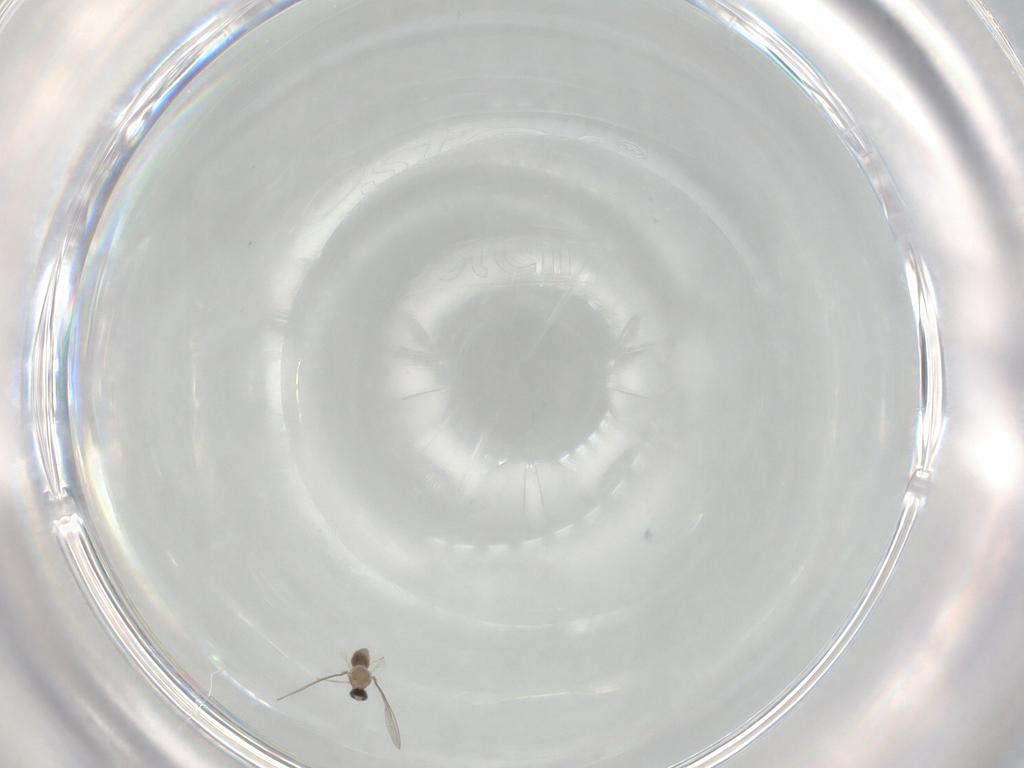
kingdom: Animalia
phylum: Arthropoda
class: Insecta
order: Diptera
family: Cecidomyiidae
